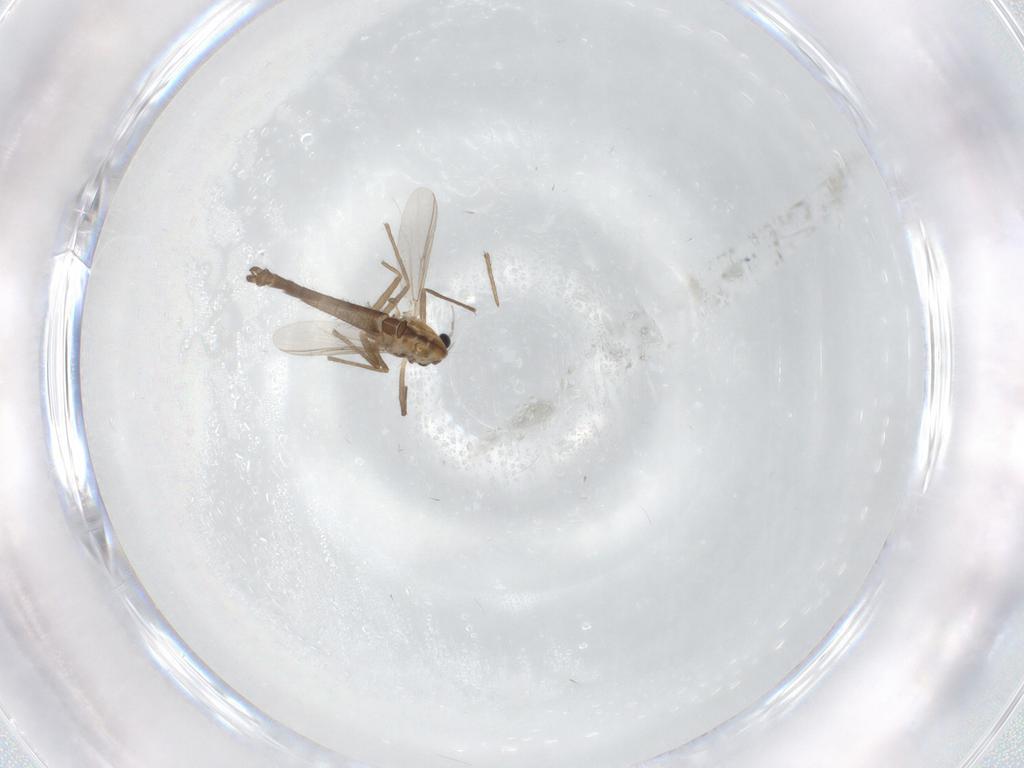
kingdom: Animalia
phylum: Arthropoda
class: Insecta
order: Diptera
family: Chironomidae
